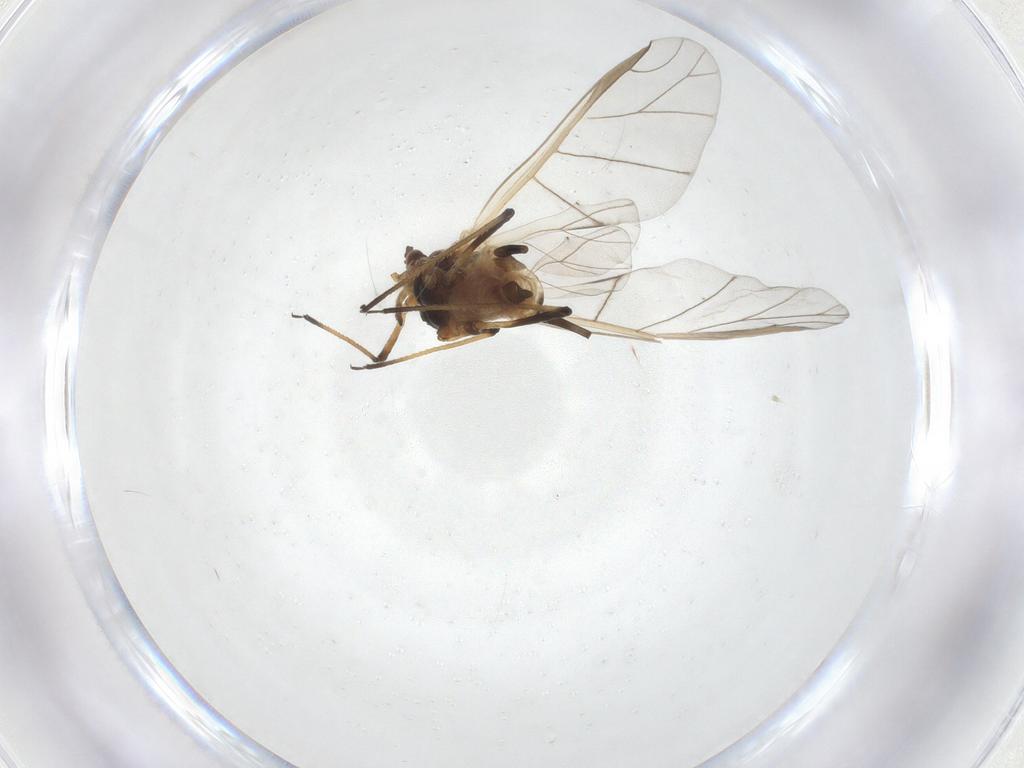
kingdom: Animalia
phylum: Arthropoda
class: Insecta
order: Hemiptera
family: Aphididae
